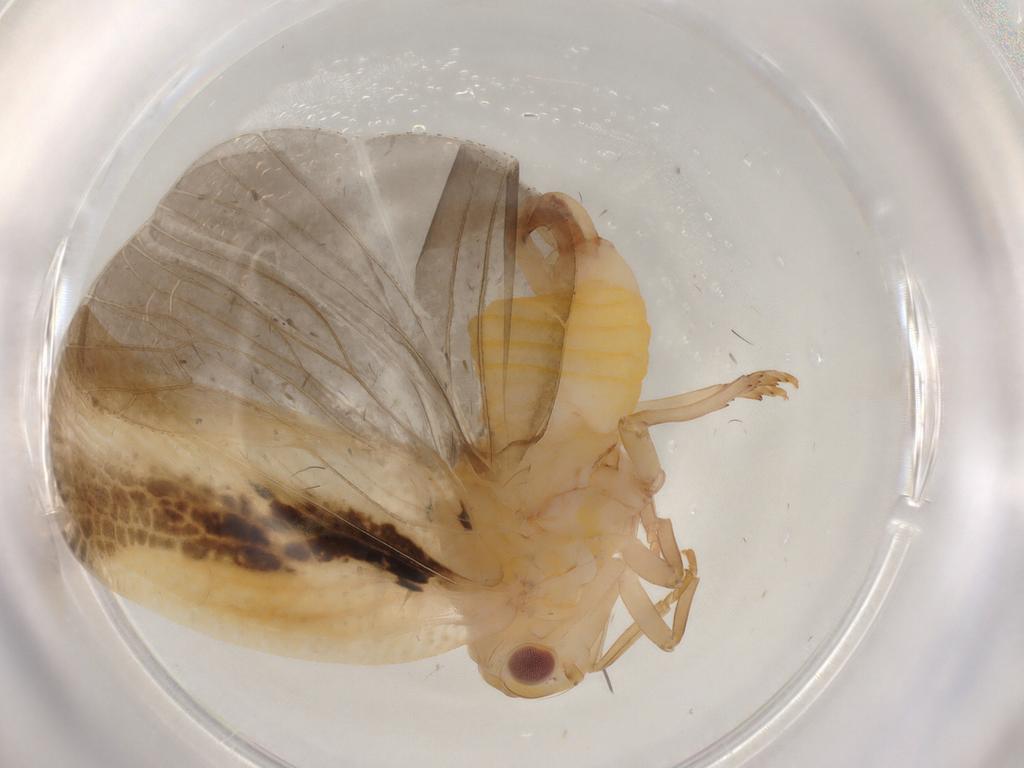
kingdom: Animalia
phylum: Arthropoda
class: Insecta
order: Hemiptera
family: Flatidae
